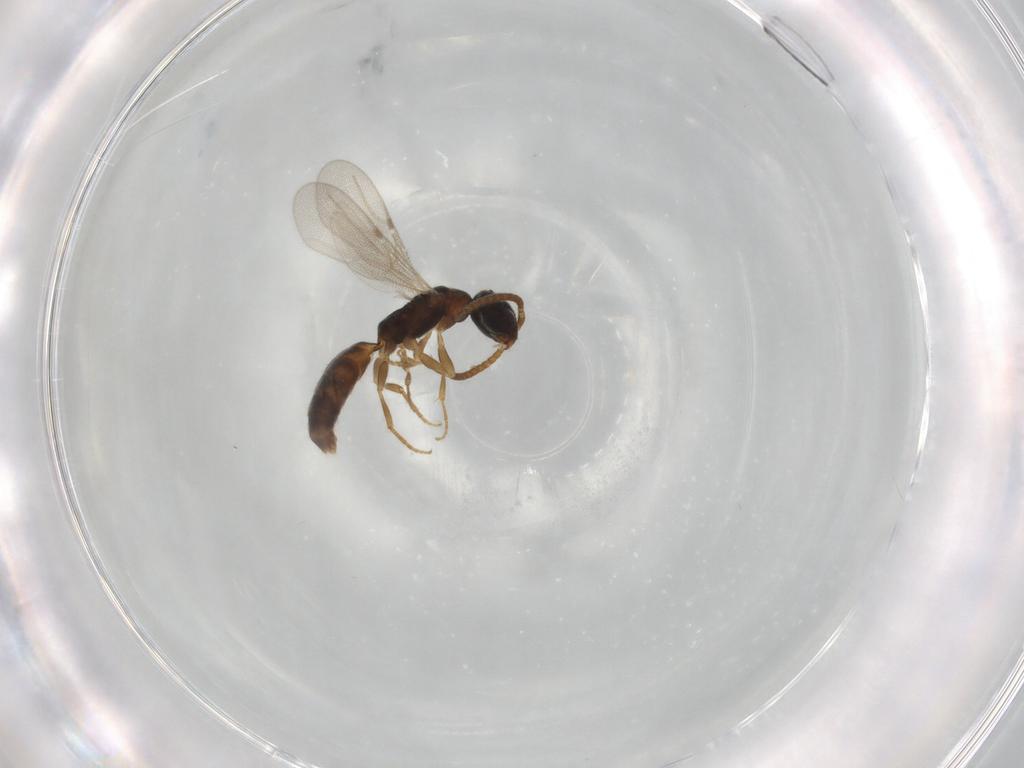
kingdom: Animalia
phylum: Arthropoda
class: Insecta
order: Hymenoptera
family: Bethylidae
